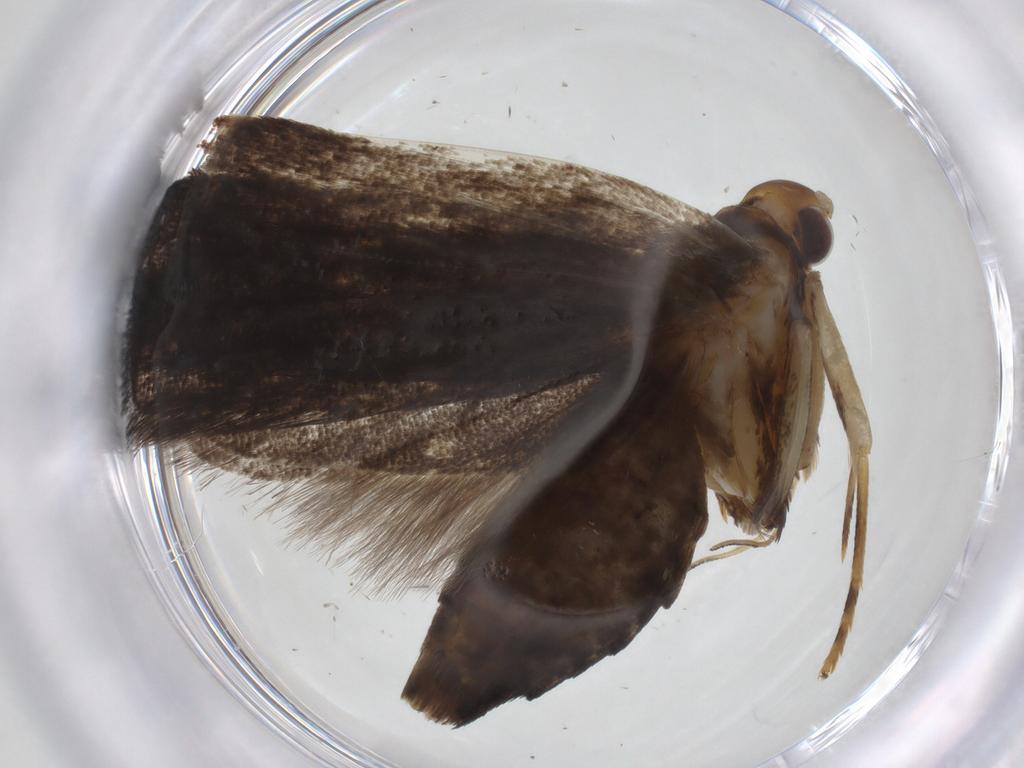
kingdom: Animalia
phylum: Arthropoda
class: Insecta
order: Lepidoptera
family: Lecithoceridae
